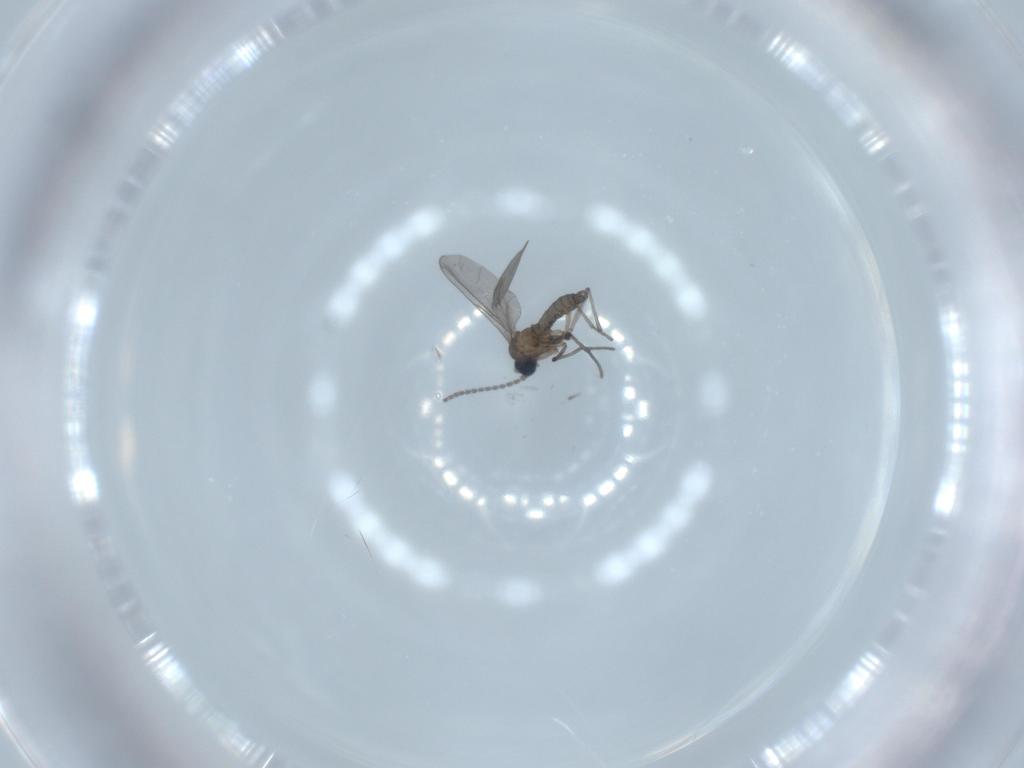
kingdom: Animalia
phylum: Arthropoda
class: Insecta
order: Diptera
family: Sciaridae
